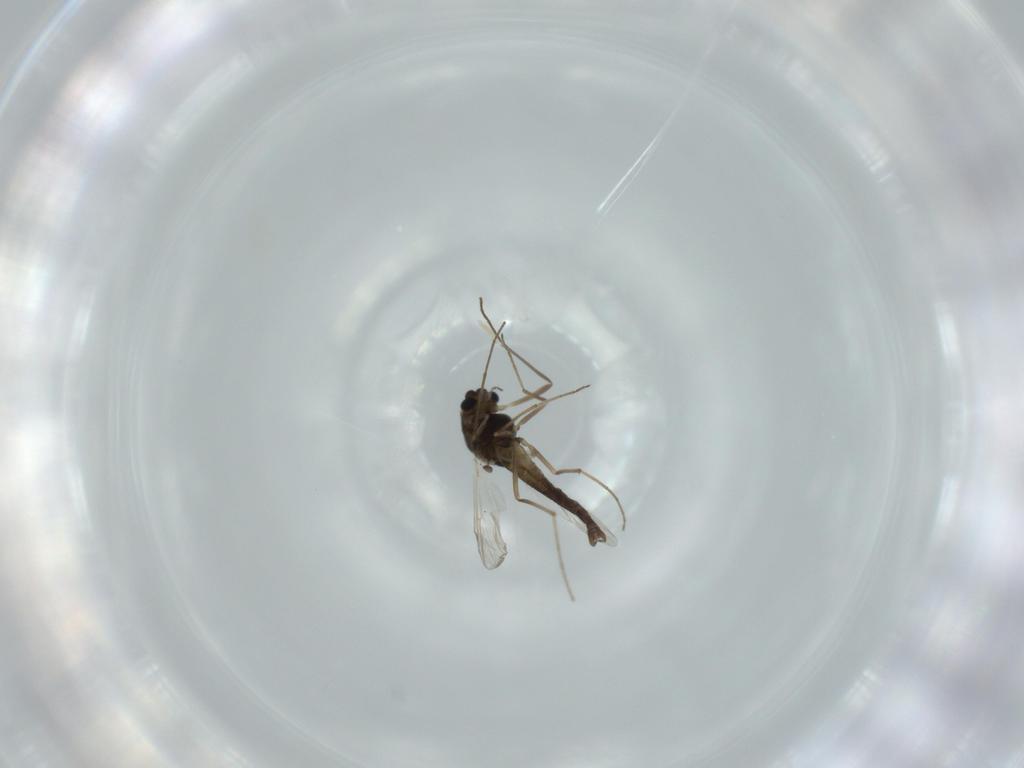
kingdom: Animalia
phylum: Arthropoda
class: Insecta
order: Diptera
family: Chironomidae
